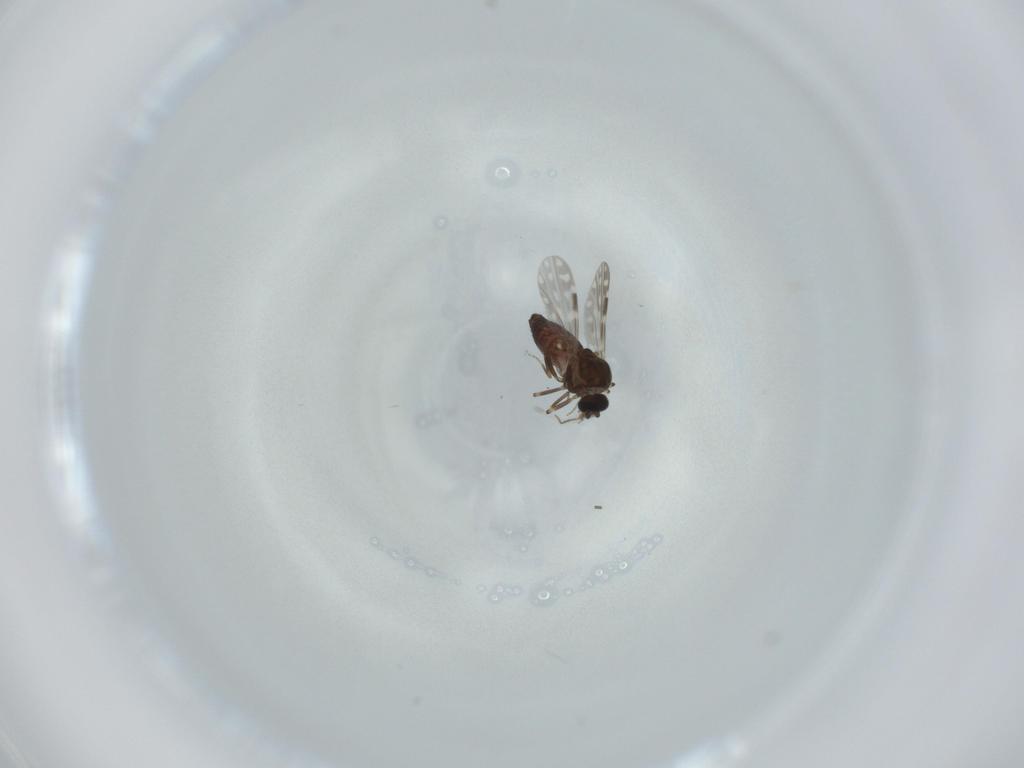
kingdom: Animalia
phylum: Arthropoda
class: Insecta
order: Diptera
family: Sciaridae
